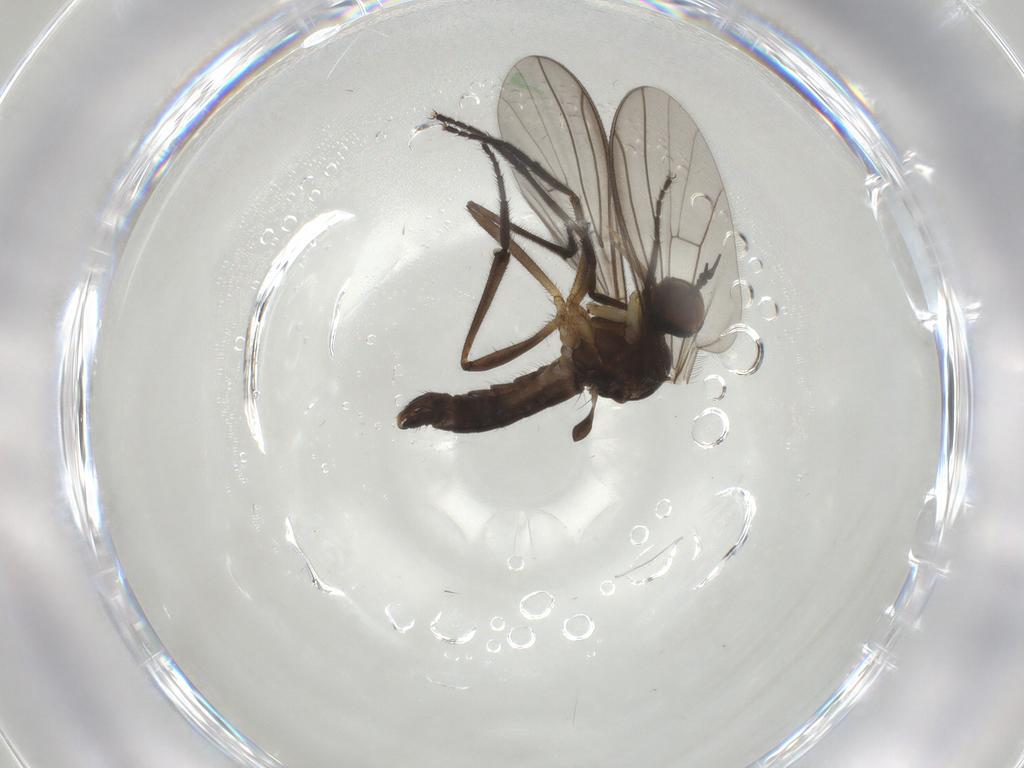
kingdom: Animalia
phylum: Arthropoda
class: Insecta
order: Diptera
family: Empididae
